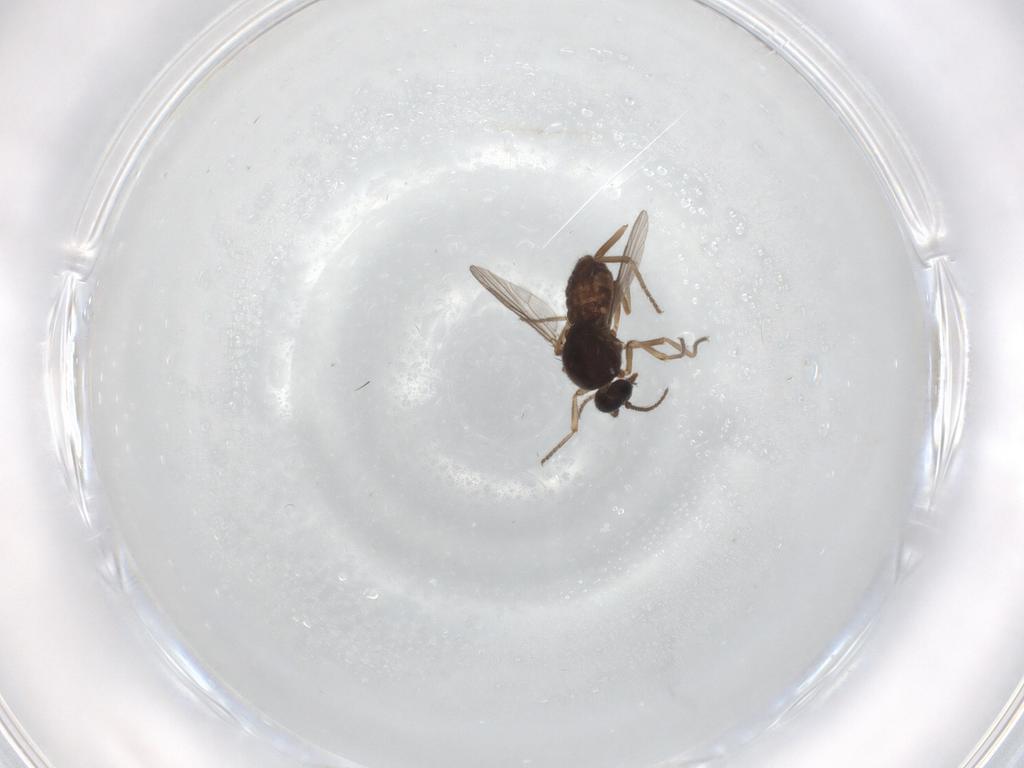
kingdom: Animalia
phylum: Arthropoda
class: Insecta
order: Diptera
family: Ceratopogonidae
